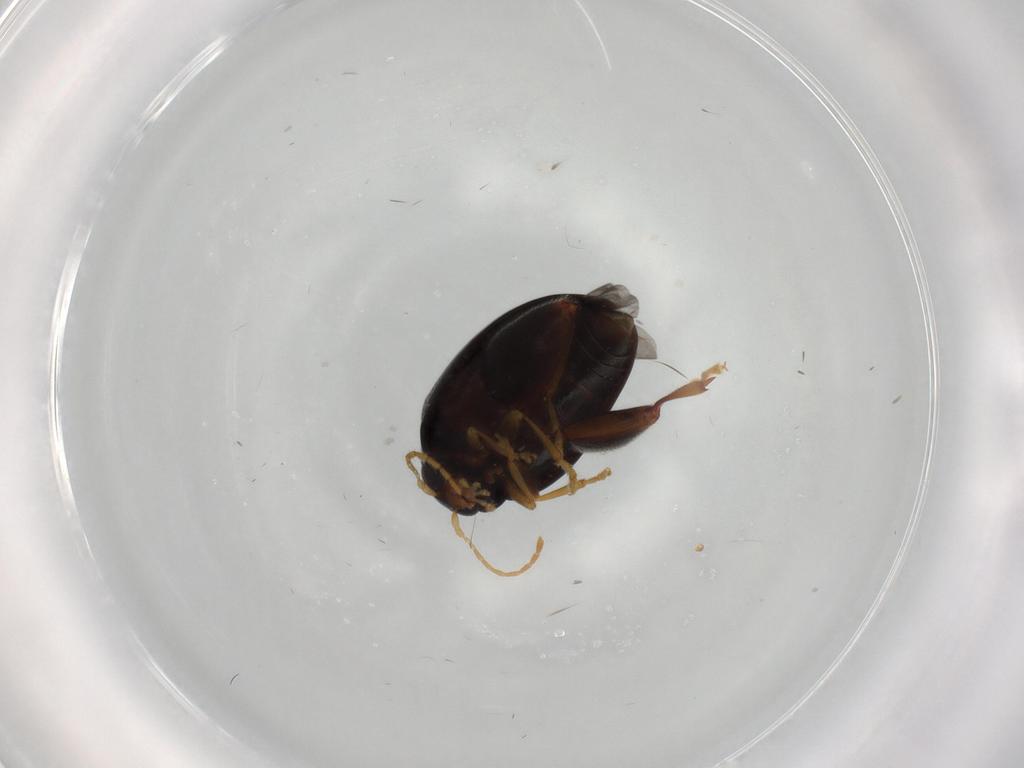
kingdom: Animalia
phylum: Arthropoda
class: Insecta
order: Coleoptera
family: Chrysomelidae
